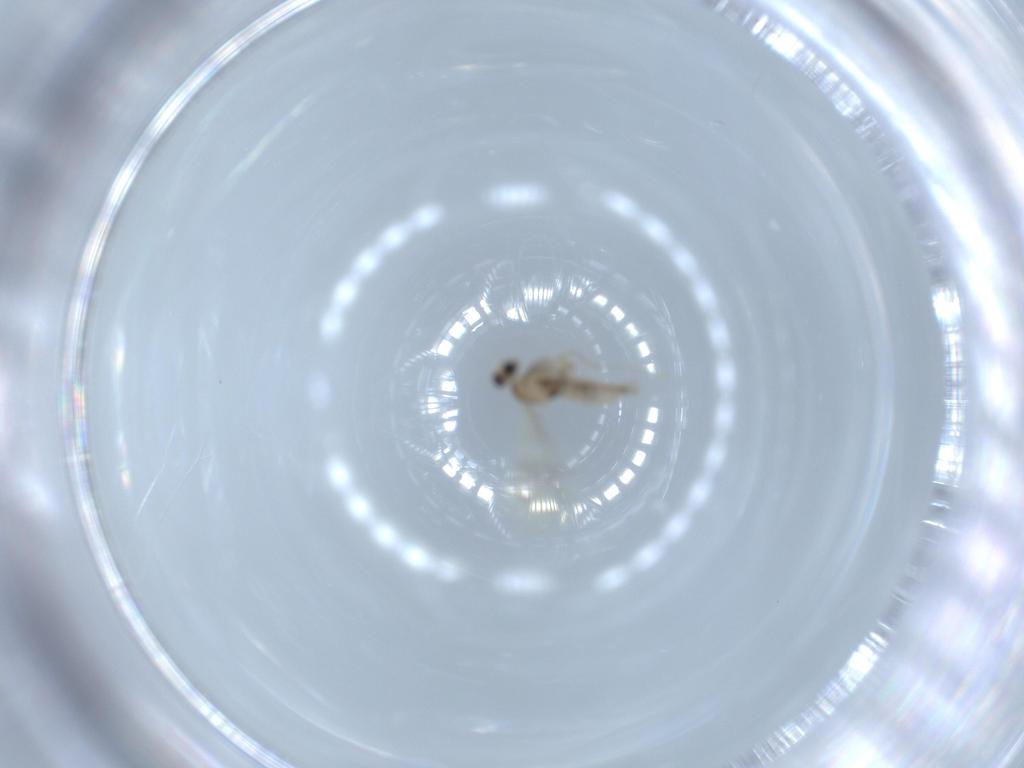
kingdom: Animalia
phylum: Arthropoda
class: Insecta
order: Diptera
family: Cecidomyiidae
